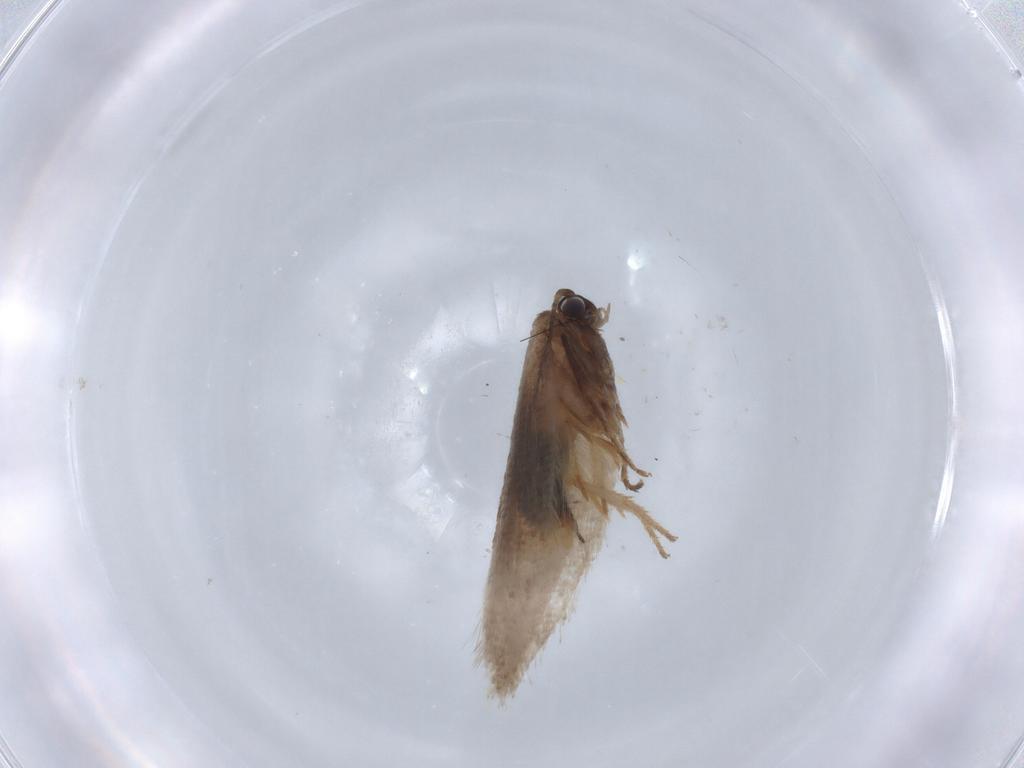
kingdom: Animalia
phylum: Arthropoda
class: Insecta
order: Lepidoptera
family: Nepticulidae
